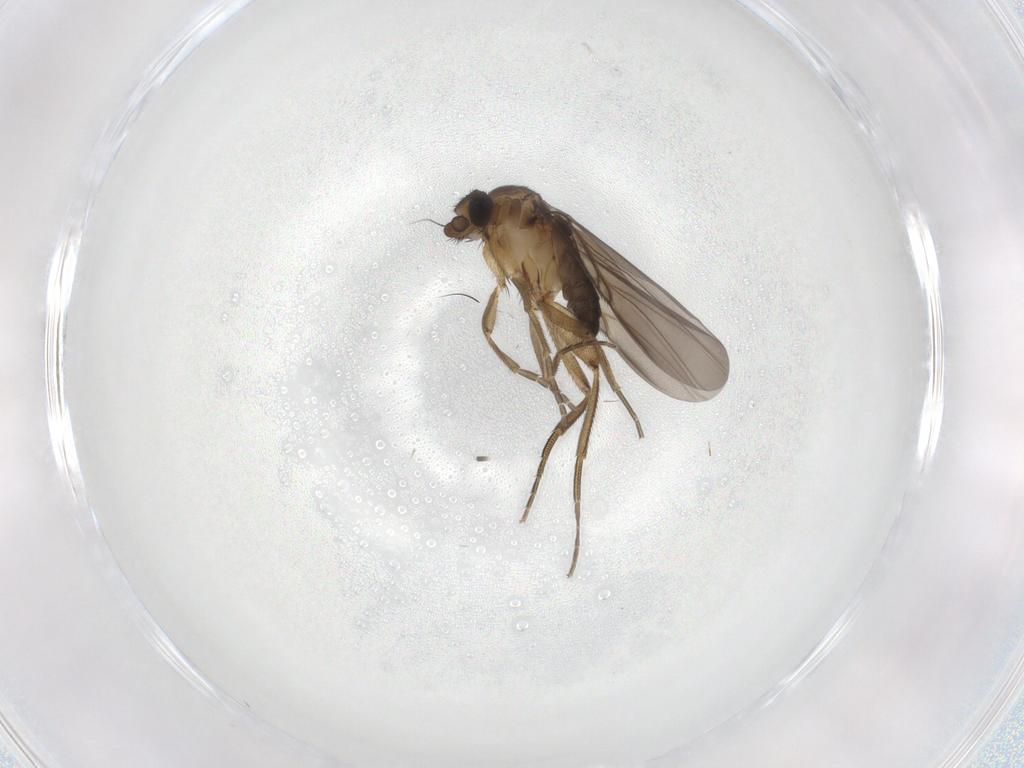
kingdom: Animalia
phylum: Arthropoda
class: Insecta
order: Diptera
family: Phoridae
